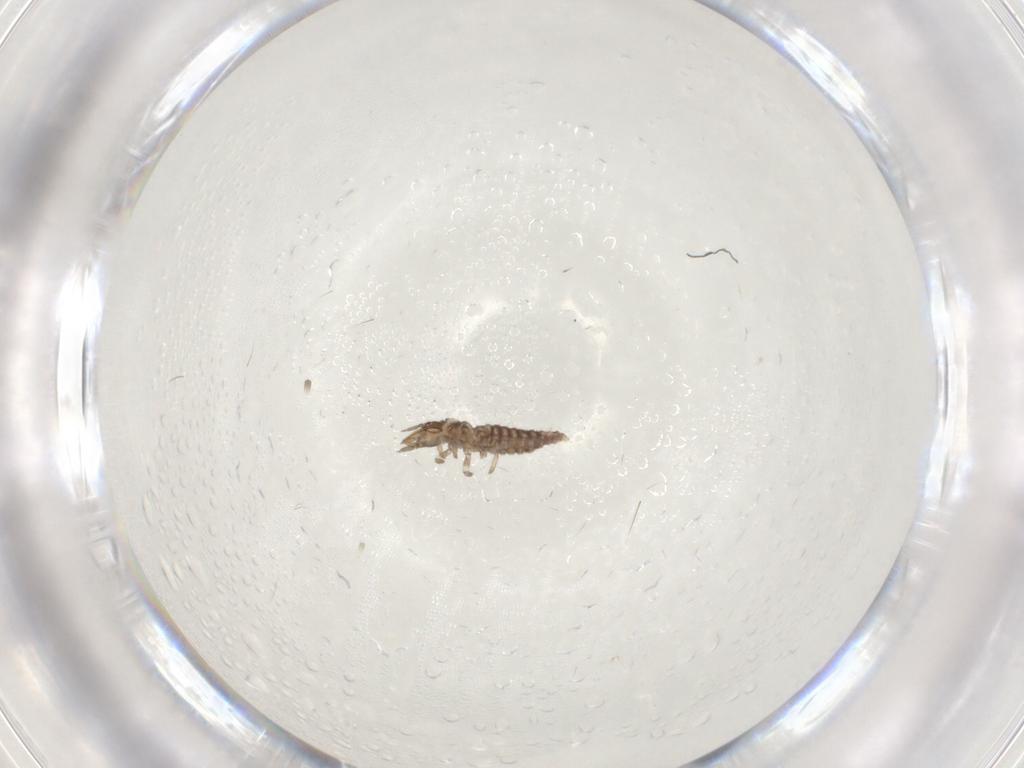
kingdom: Animalia
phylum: Arthropoda
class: Insecta
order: Neuroptera
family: Hemerobiidae
